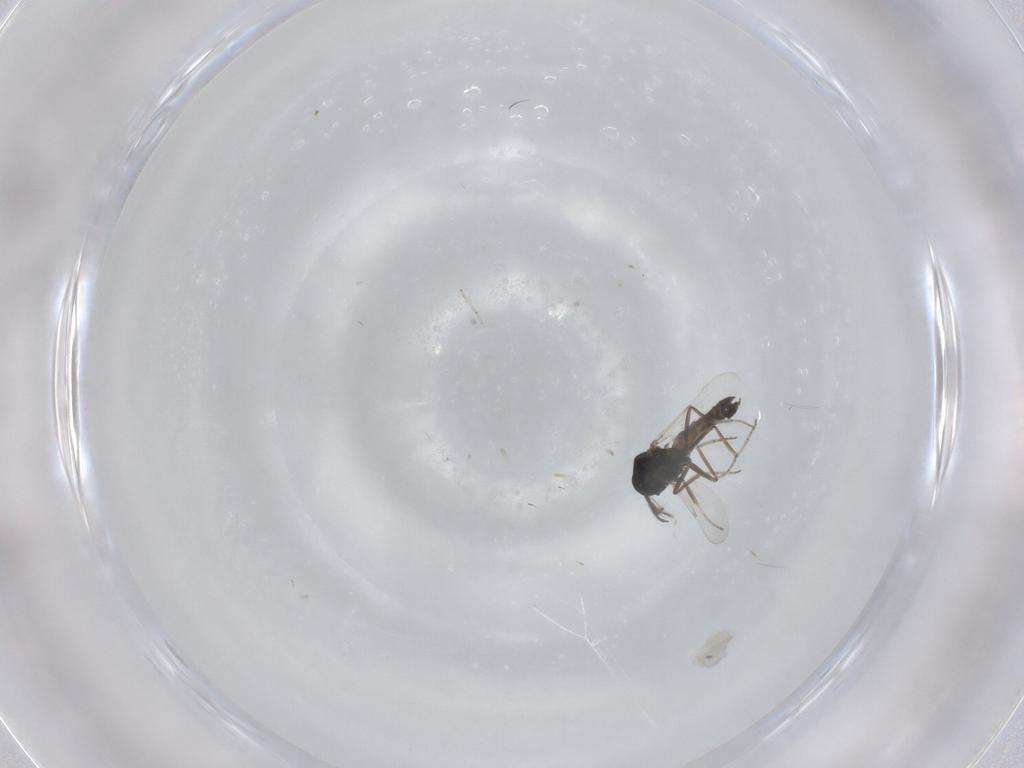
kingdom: Animalia
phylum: Arthropoda
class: Insecta
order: Diptera
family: Ceratopogonidae
